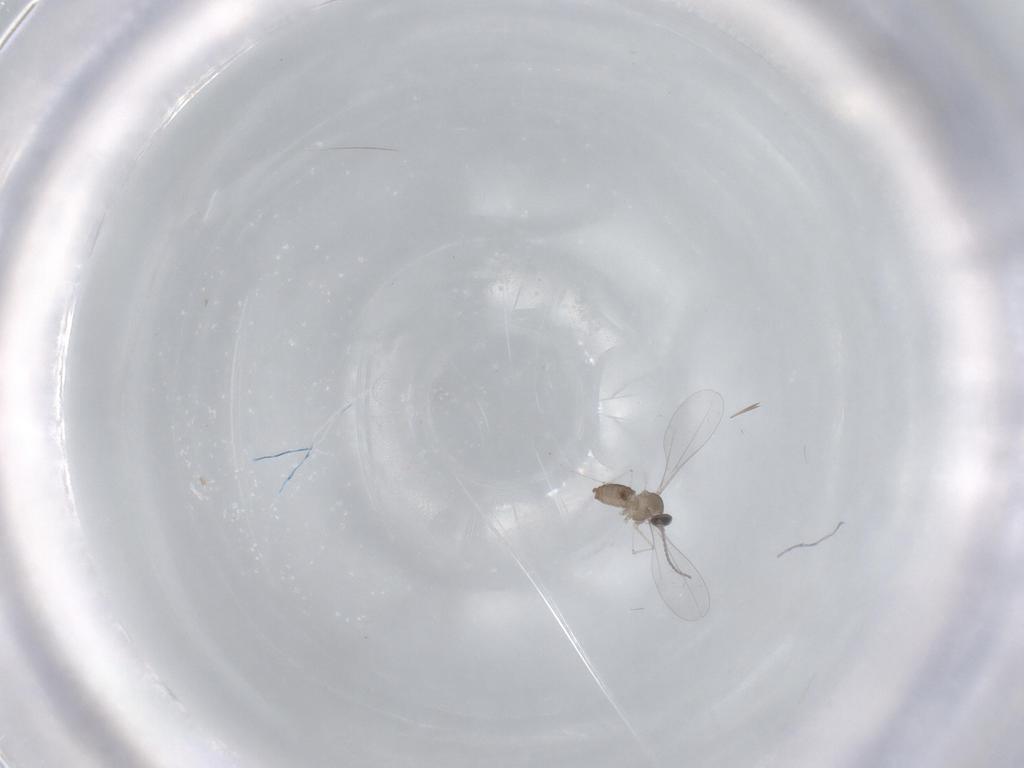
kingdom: Animalia
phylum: Arthropoda
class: Insecta
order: Diptera
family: Cecidomyiidae
